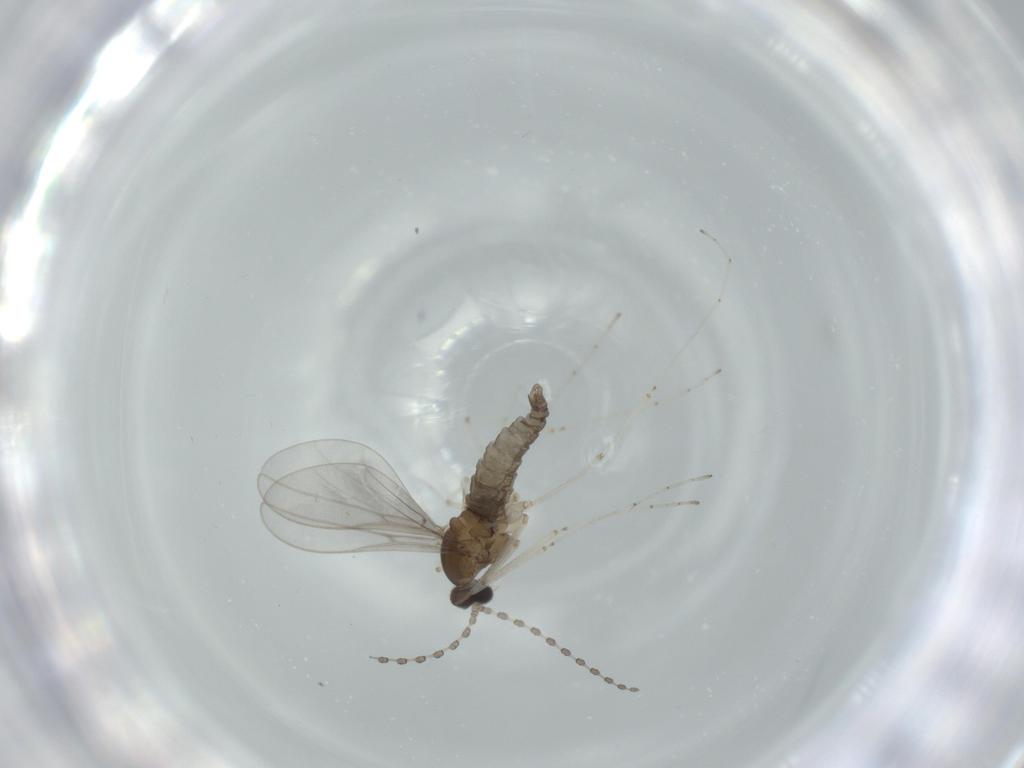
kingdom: Animalia
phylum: Arthropoda
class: Insecta
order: Diptera
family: Cecidomyiidae
